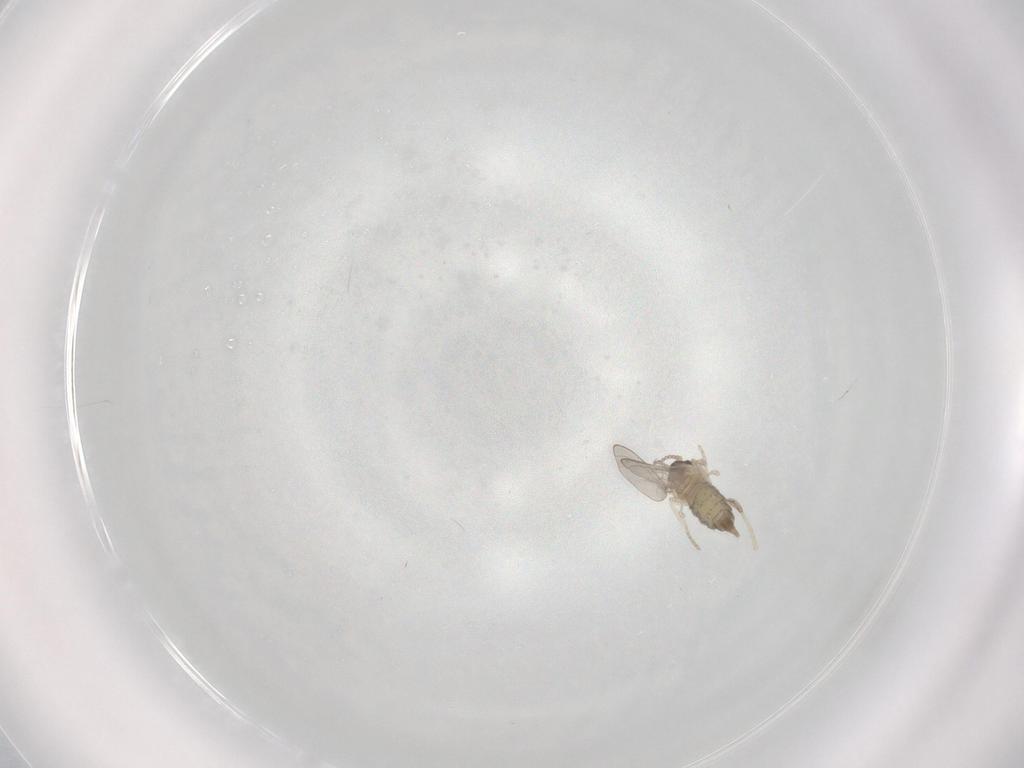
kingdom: Animalia
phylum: Arthropoda
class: Insecta
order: Diptera
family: Cecidomyiidae
